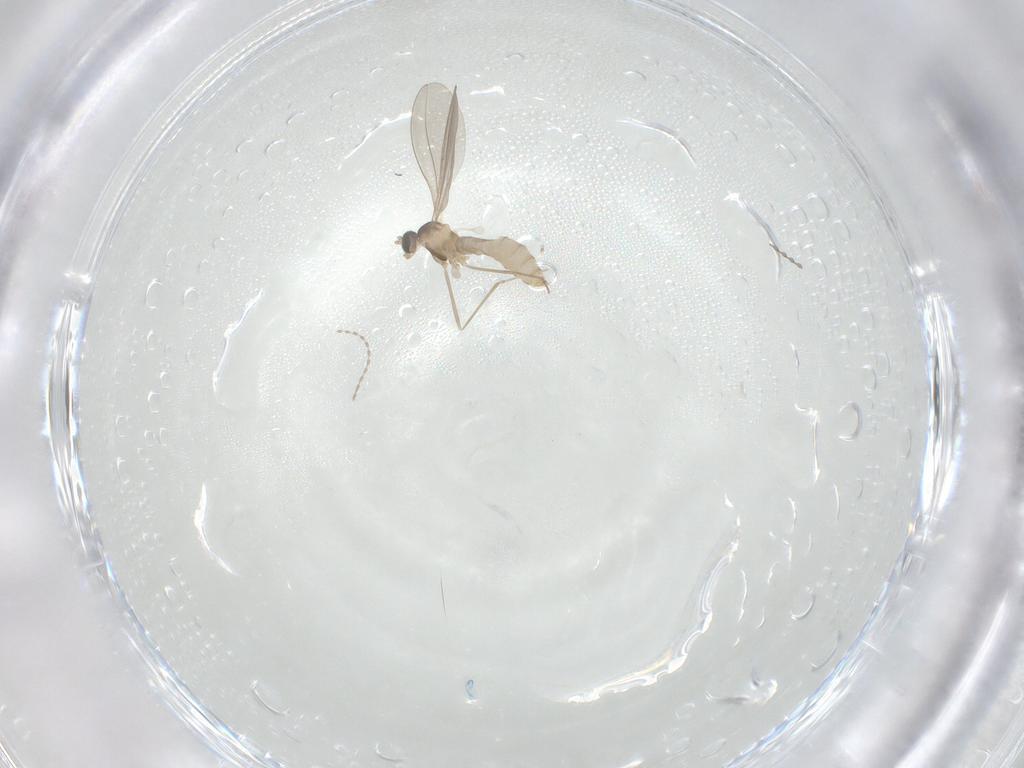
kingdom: Animalia
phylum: Arthropoda
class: Insecta
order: Diptera
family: Cecidomyiidae
